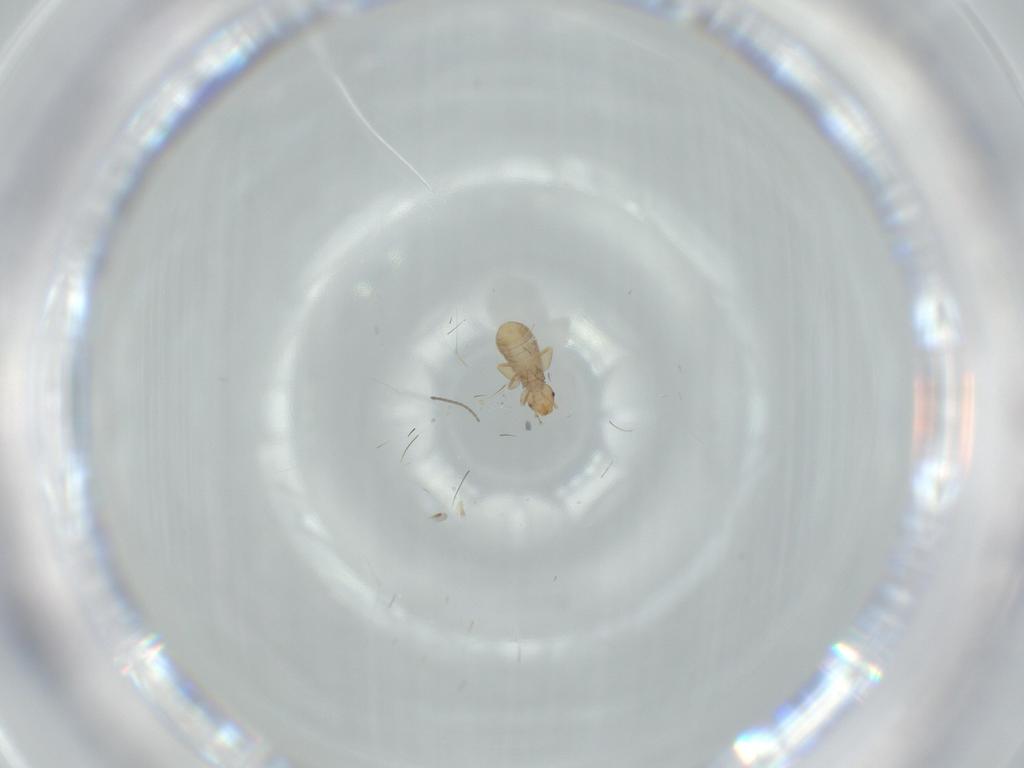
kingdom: Animalia
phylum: Arthropoda
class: Insecta
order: Psocodea
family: Liposcelididae
